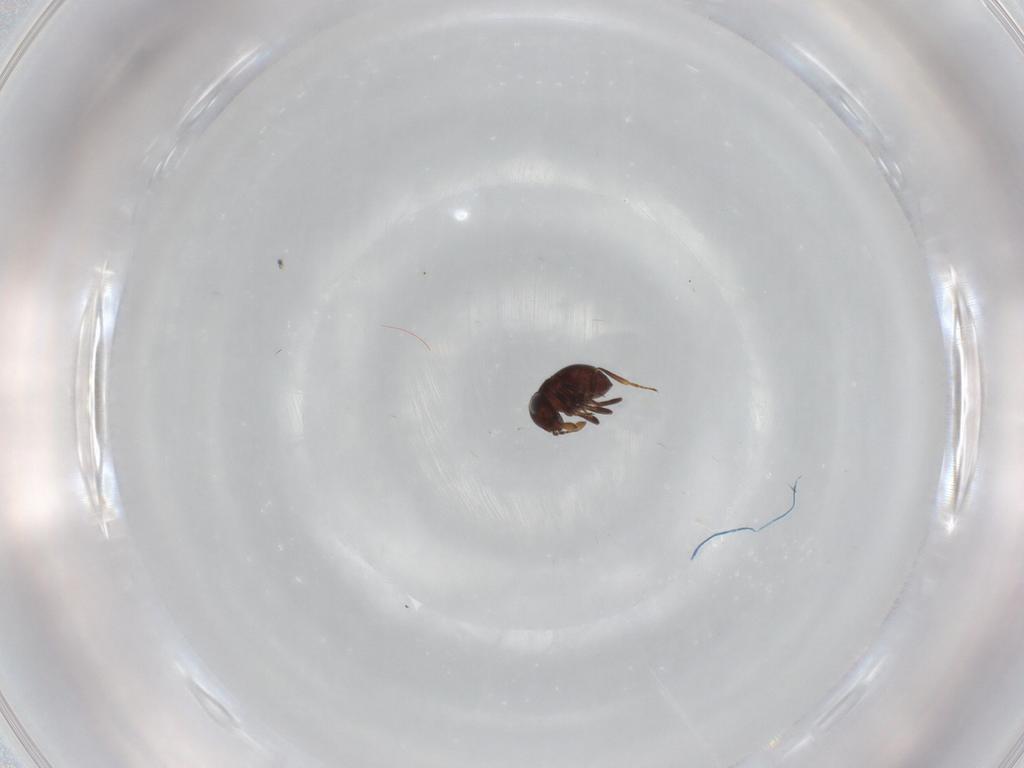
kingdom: Animalia
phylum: Arthropoda
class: Insecta
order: Hymenoptera
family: Scelionidae
